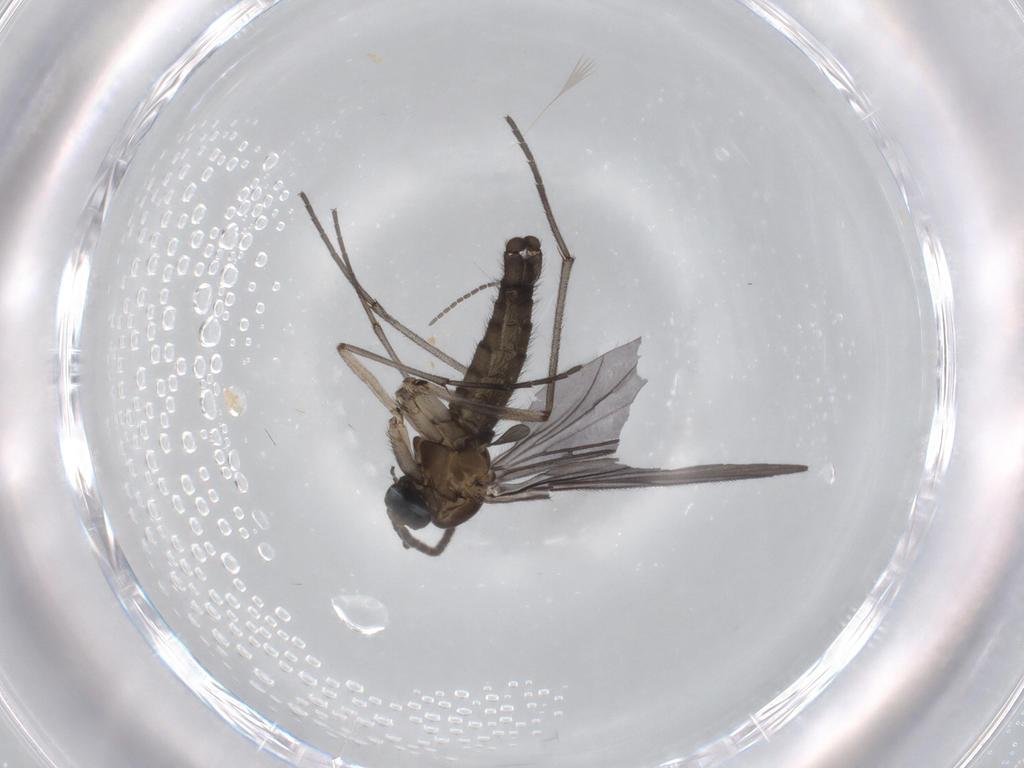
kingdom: Animalia
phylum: Arthropoda
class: Insecta
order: Diptera
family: Sciaridae
